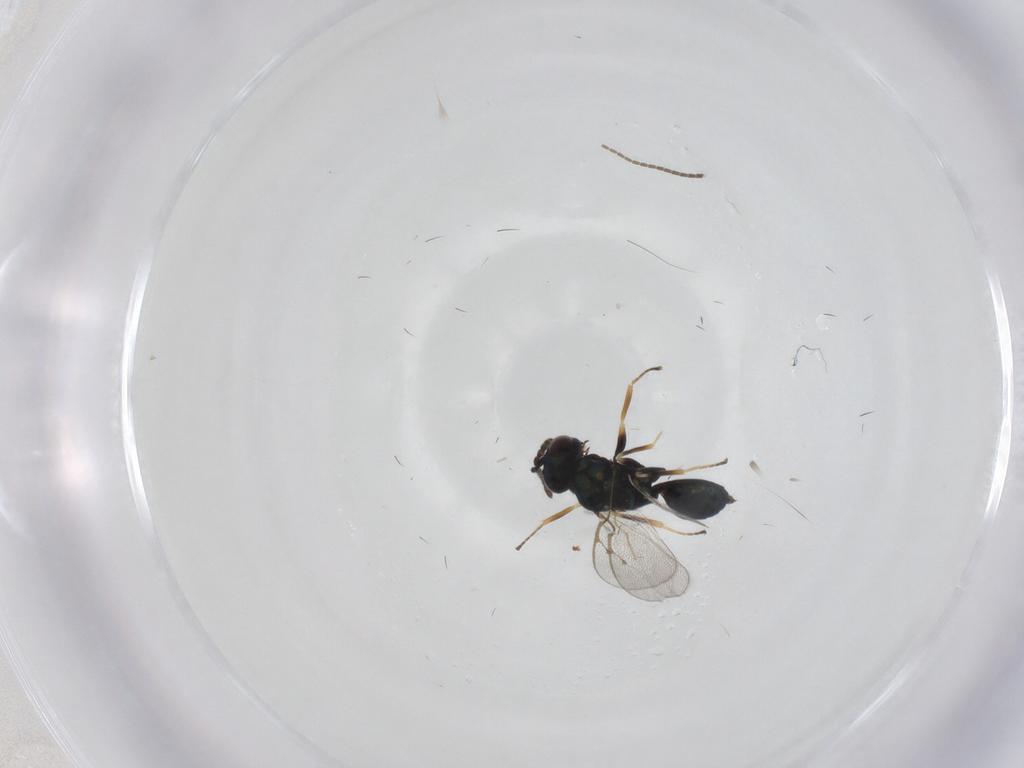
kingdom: Animalia
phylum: Arthropoda
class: Insecta
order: Hymenoptera
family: Pteromalidae
